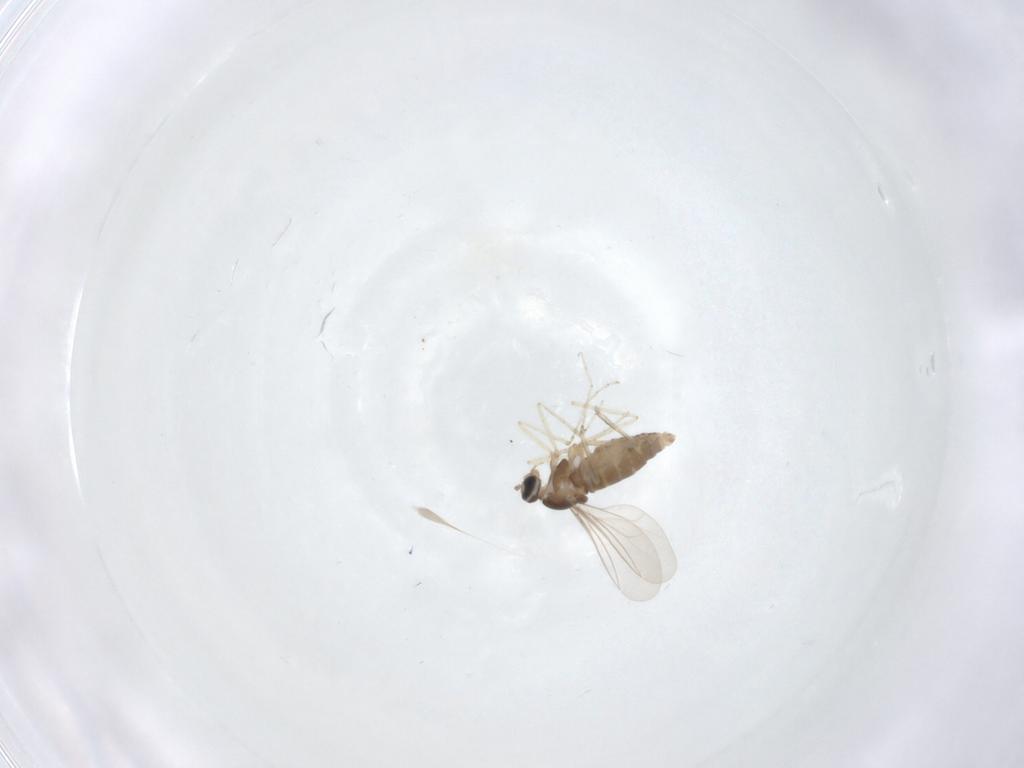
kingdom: Animalia
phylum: Arthropoda
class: Insecta
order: Diptera
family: Cecidomyiidae
